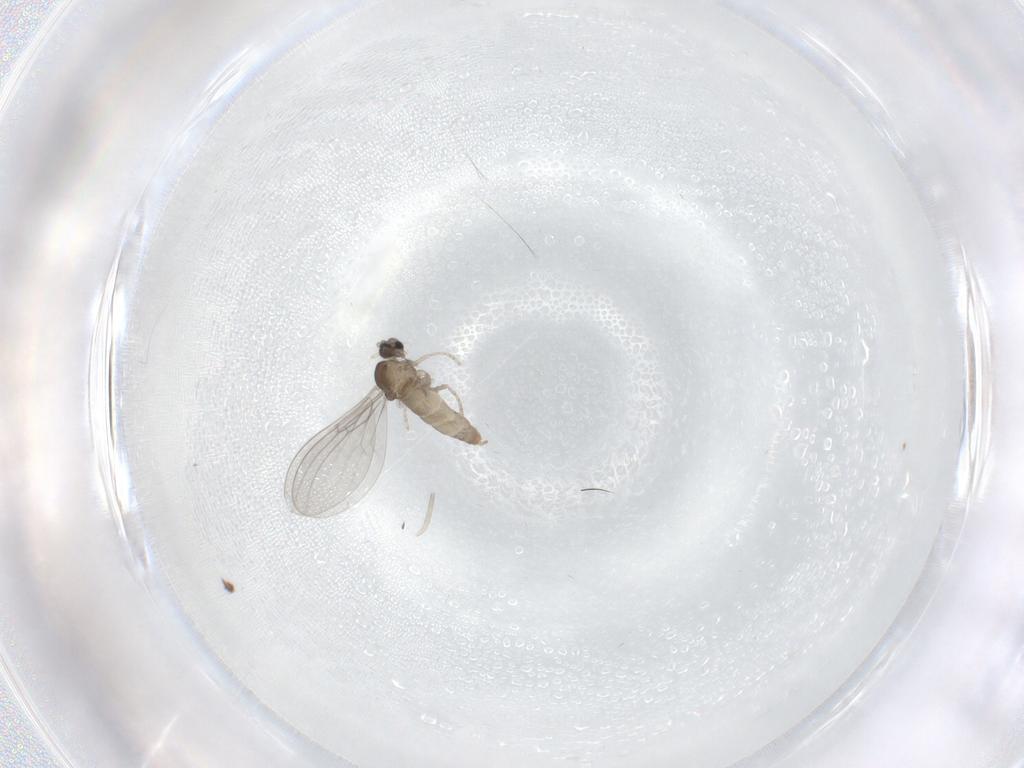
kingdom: Animalia
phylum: Arthropoda
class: Insecta
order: Diptera
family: Cecidomyiidae
